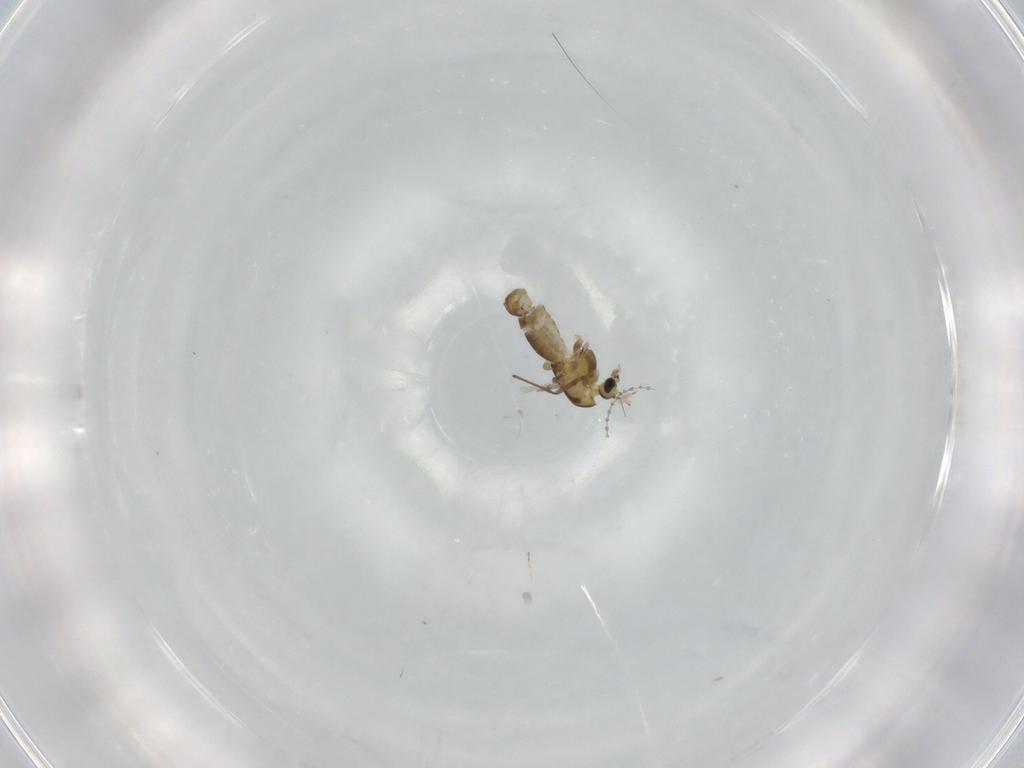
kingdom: Animalia
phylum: Arthropoda
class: Insecta
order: Diptera
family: Chironomidae
